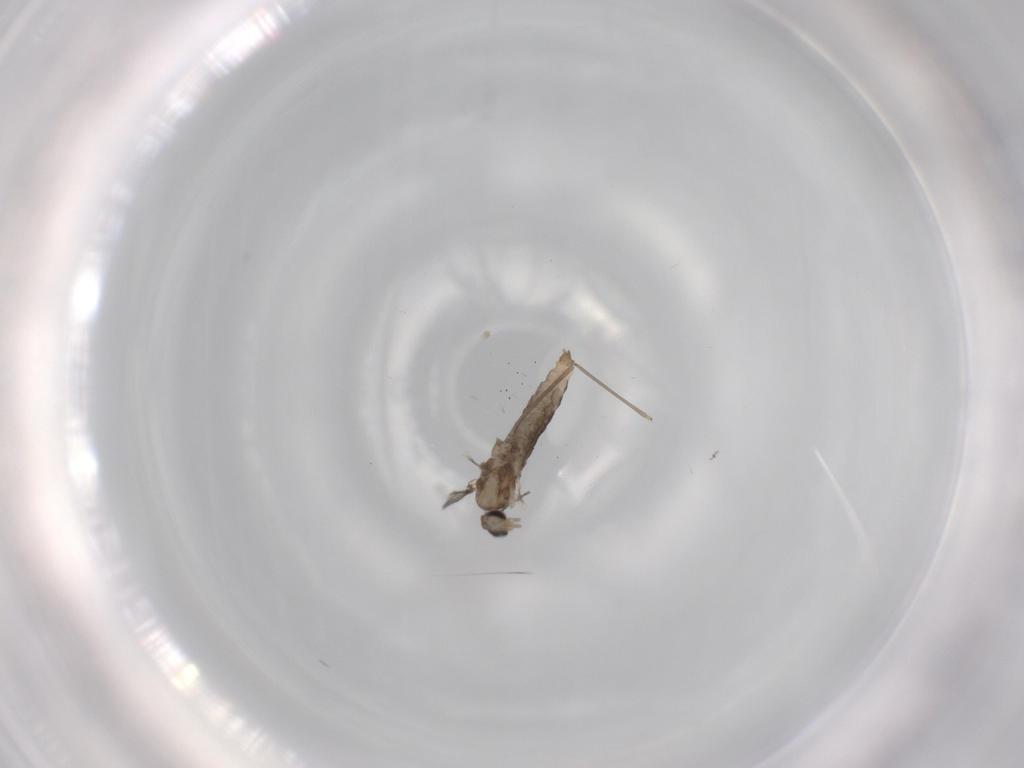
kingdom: Animalia
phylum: Arthropoda
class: Insecta
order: Diptera
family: Cecidomyiidae
